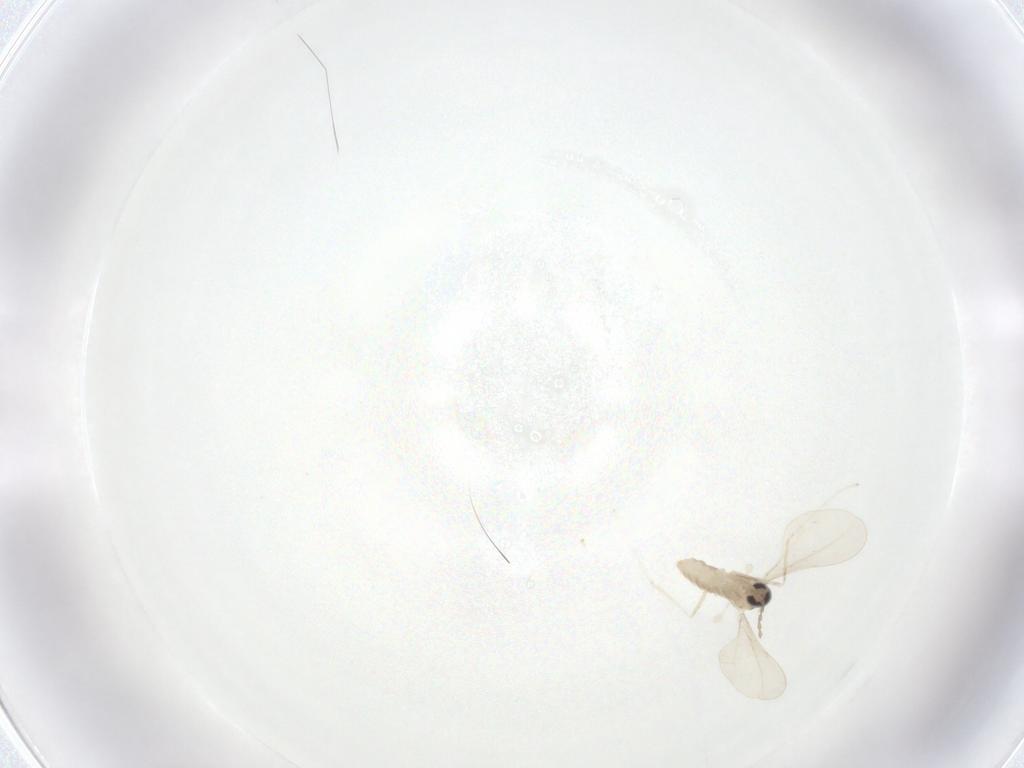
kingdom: Animalia
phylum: Arthropoda
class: Insecta
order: Diptera
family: Cecidomyiidae
